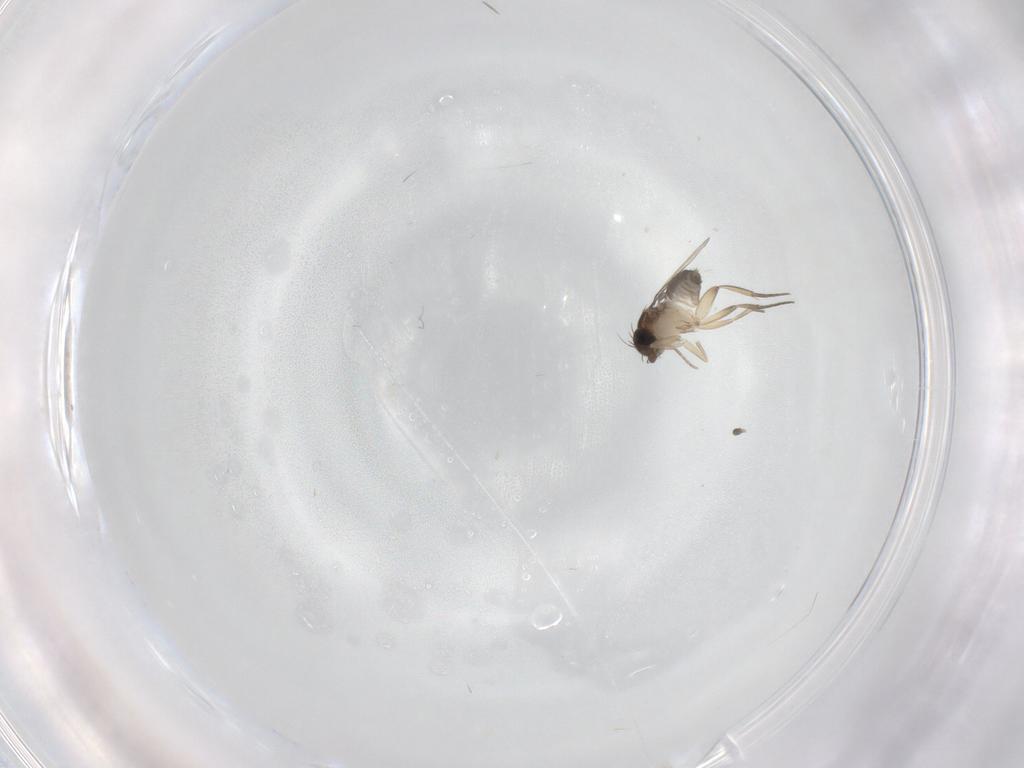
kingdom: Animalia
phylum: Arthropoda
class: Insecta
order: Diptera
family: Phoridae
